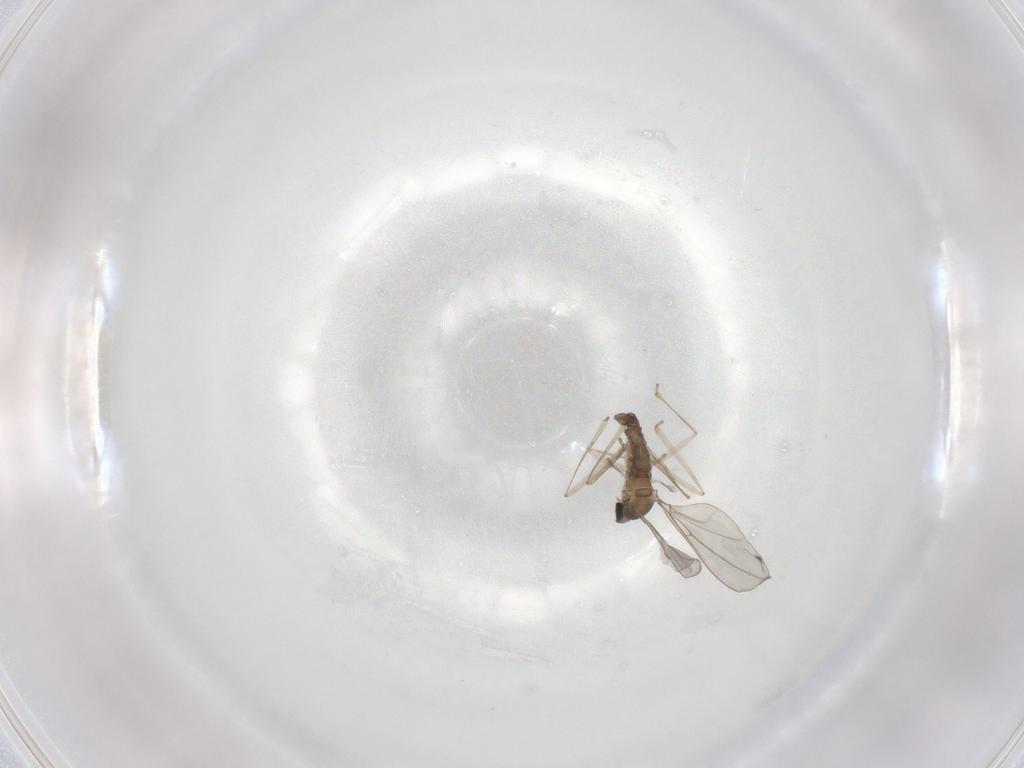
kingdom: Animalia
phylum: Arthropoda
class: Insecta
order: Diptera
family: Cecidomyiidae
